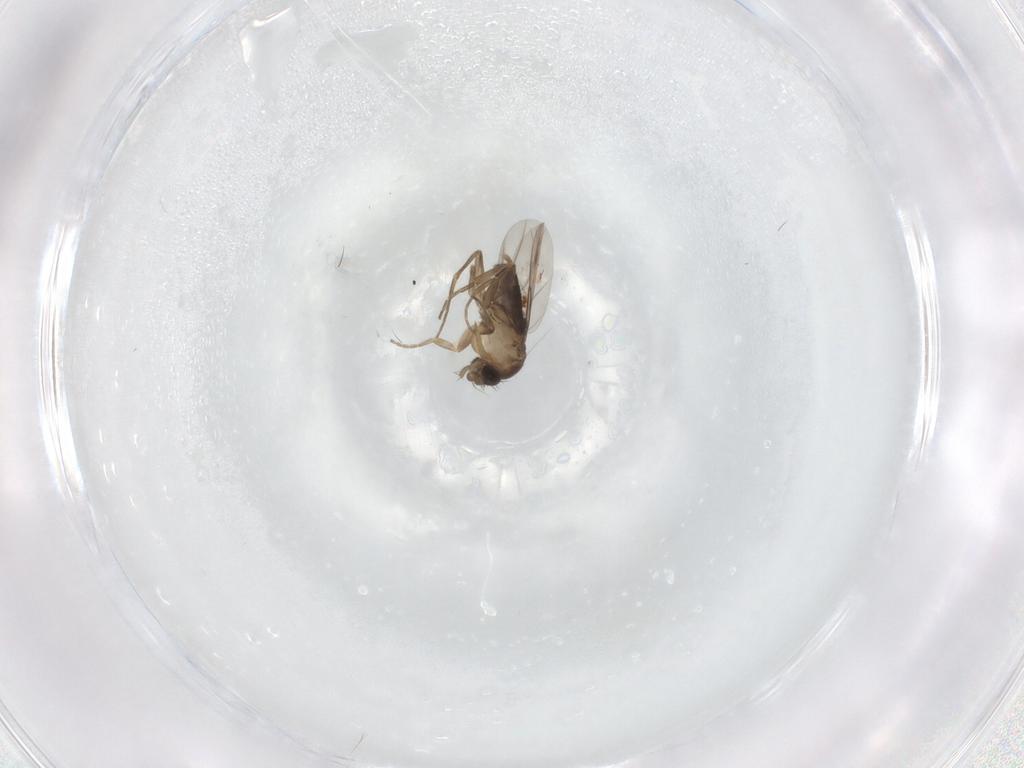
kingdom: Animalia
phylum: Arthropoda
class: Insecta
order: Diptera
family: Phoridae
